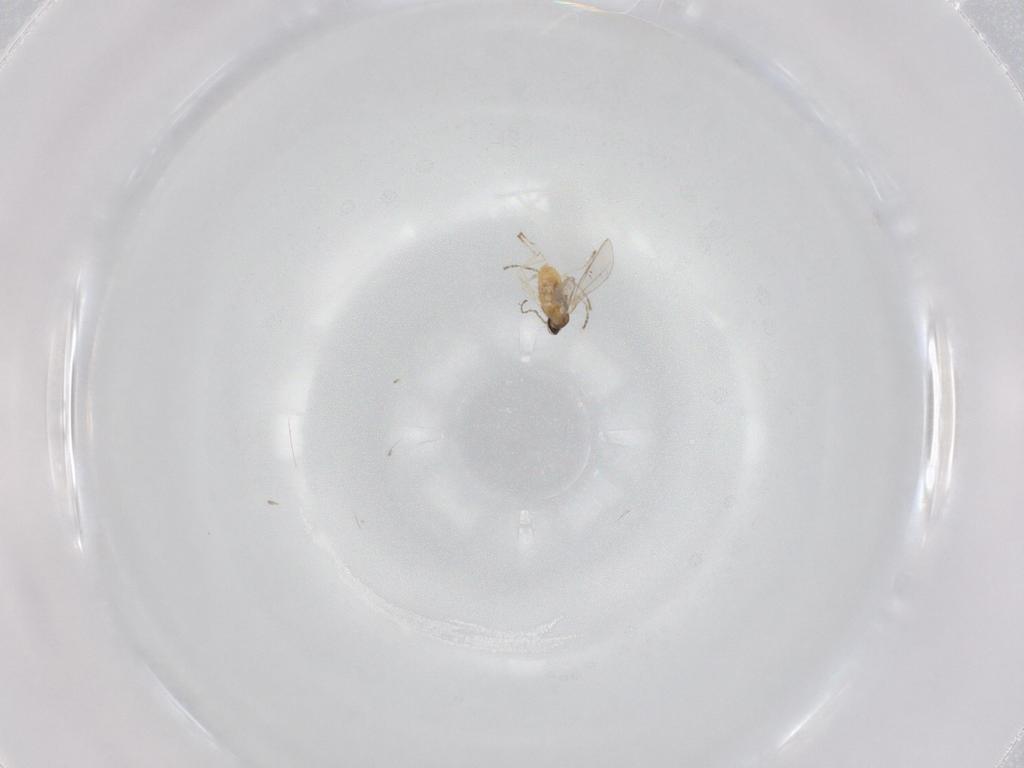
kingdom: Animalia
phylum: Arthropoda
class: Insecta
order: Diptera
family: Cecidomyiidae
